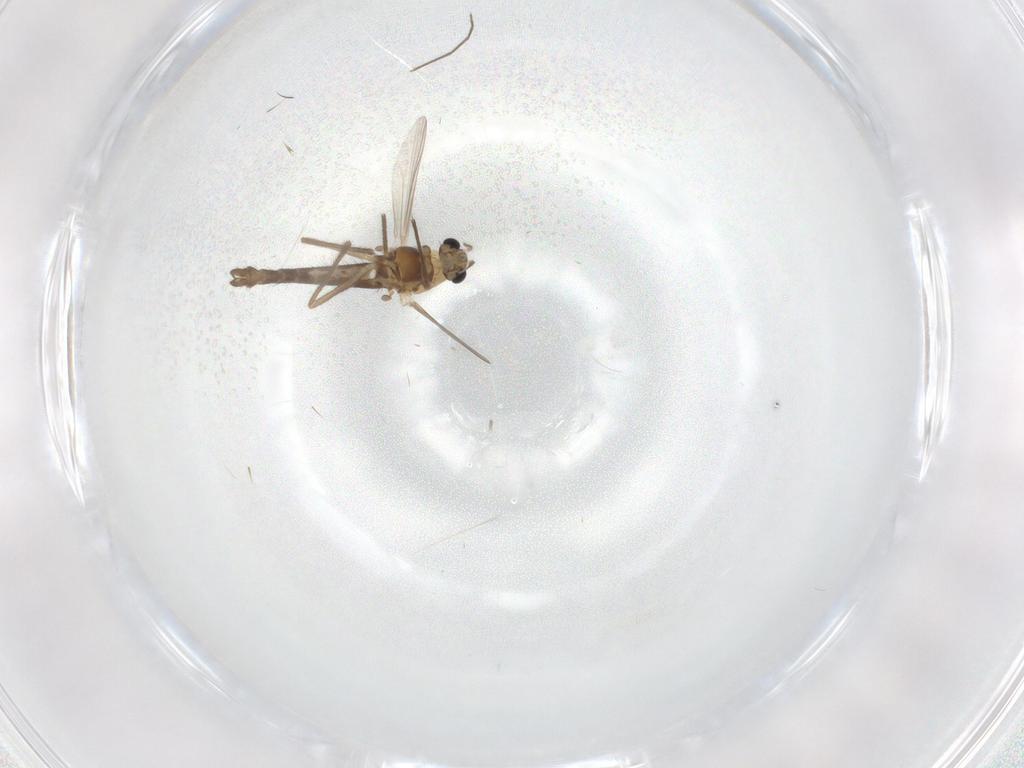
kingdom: Animalia
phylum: Arthropoda
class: Insecta
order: Diptera
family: Chironomidae
